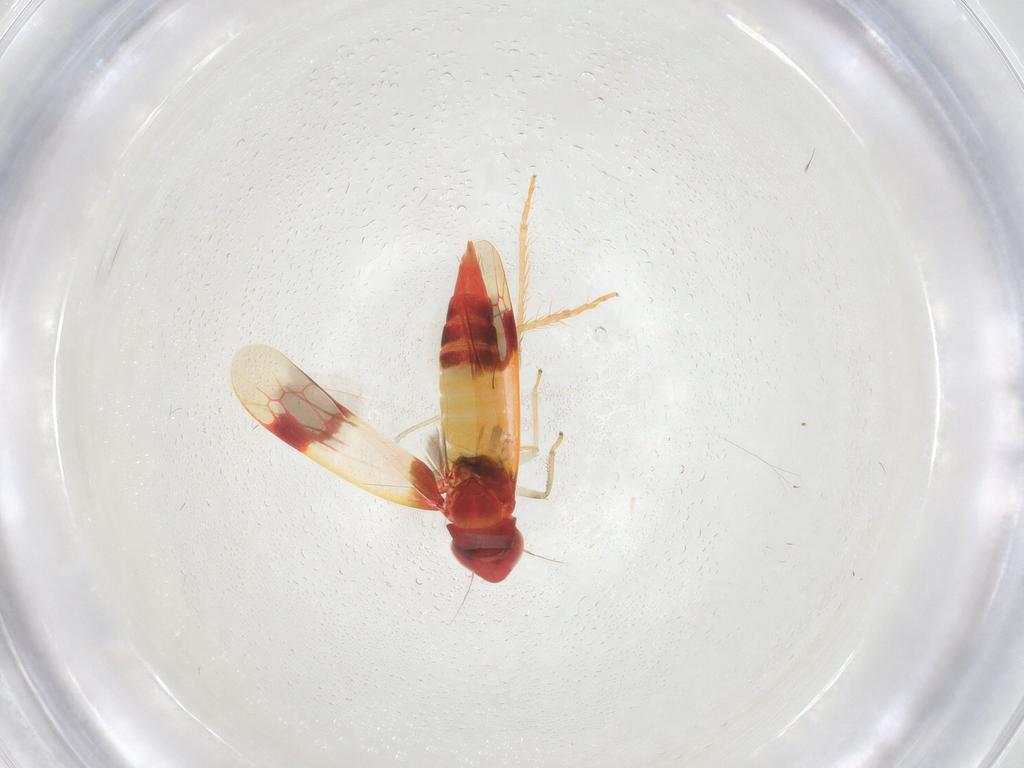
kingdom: Animalia
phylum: Arthropoda
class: Insecta
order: Hemiptera
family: Cicadellidae
